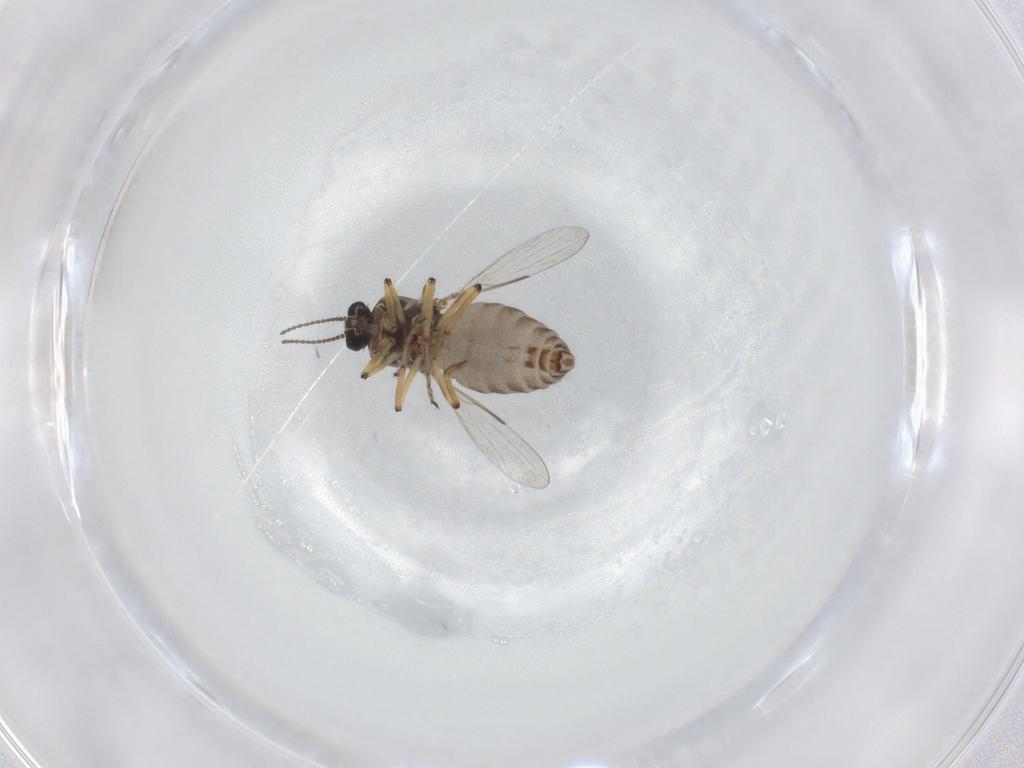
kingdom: Animalia
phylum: Arthropoda
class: Insecta
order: Diptera
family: Ceratopogonidae
